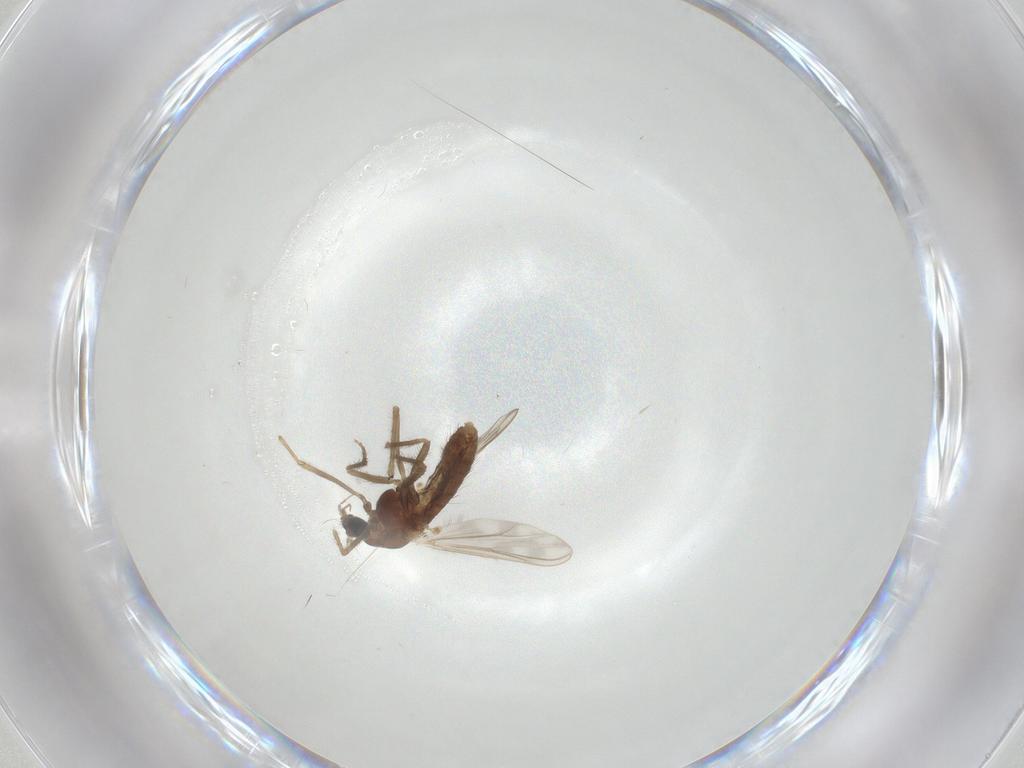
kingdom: Animalia
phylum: Arthropoda
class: Insecta
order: Diptera
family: Chironomidae
